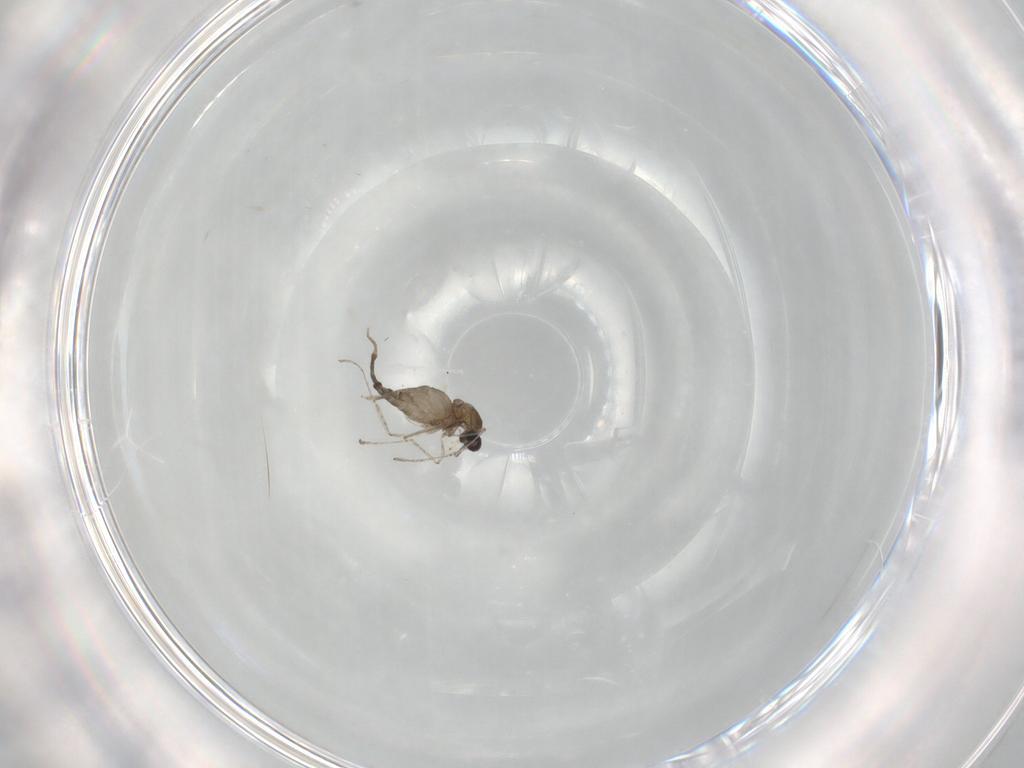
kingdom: Animalia
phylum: Arthropoda
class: Insecta
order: Diptera
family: Cecidomyiidae
